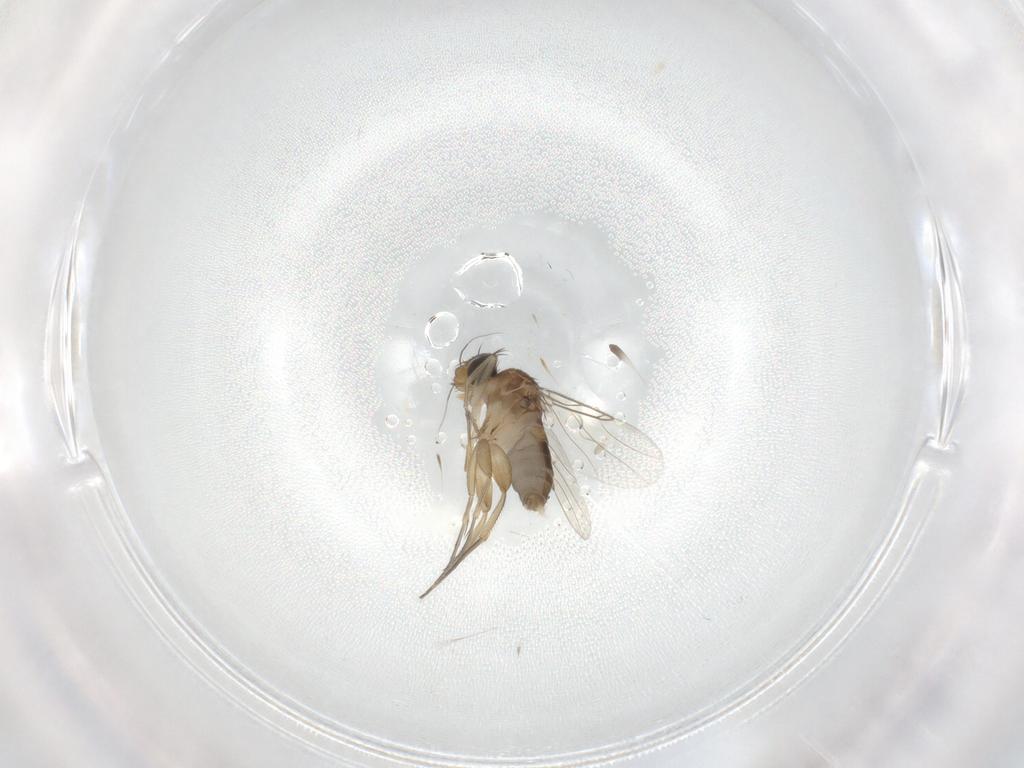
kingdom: Animalia
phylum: Arthropoda
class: Insecta
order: Diptera
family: Phoridae
